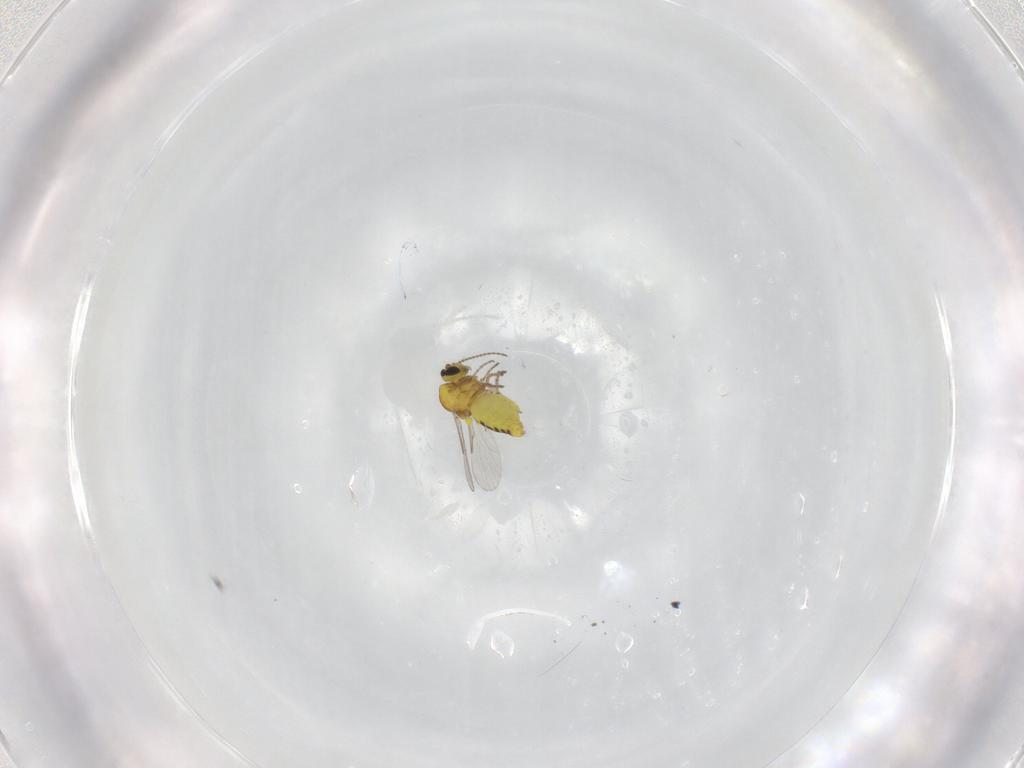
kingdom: Animalia
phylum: Arthropoda
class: Insecta
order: Diptera
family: Ceratopogonidae
